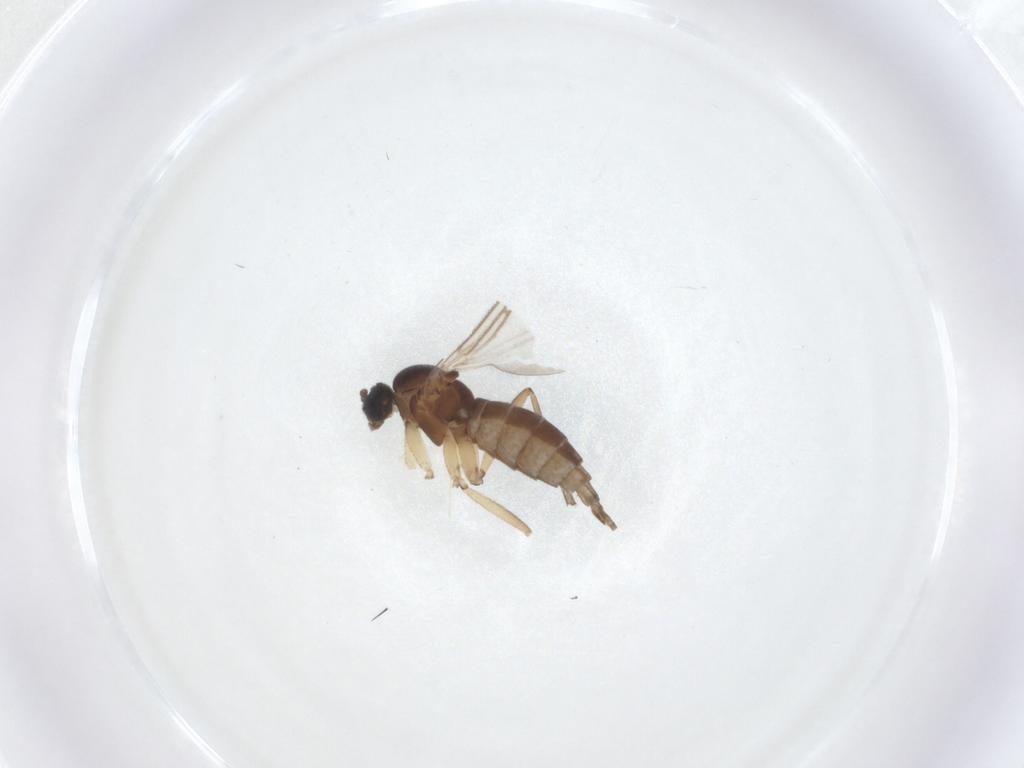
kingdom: Animalia
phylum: Arthropoda
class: Insecta
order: Diptera
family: Sciaridae
